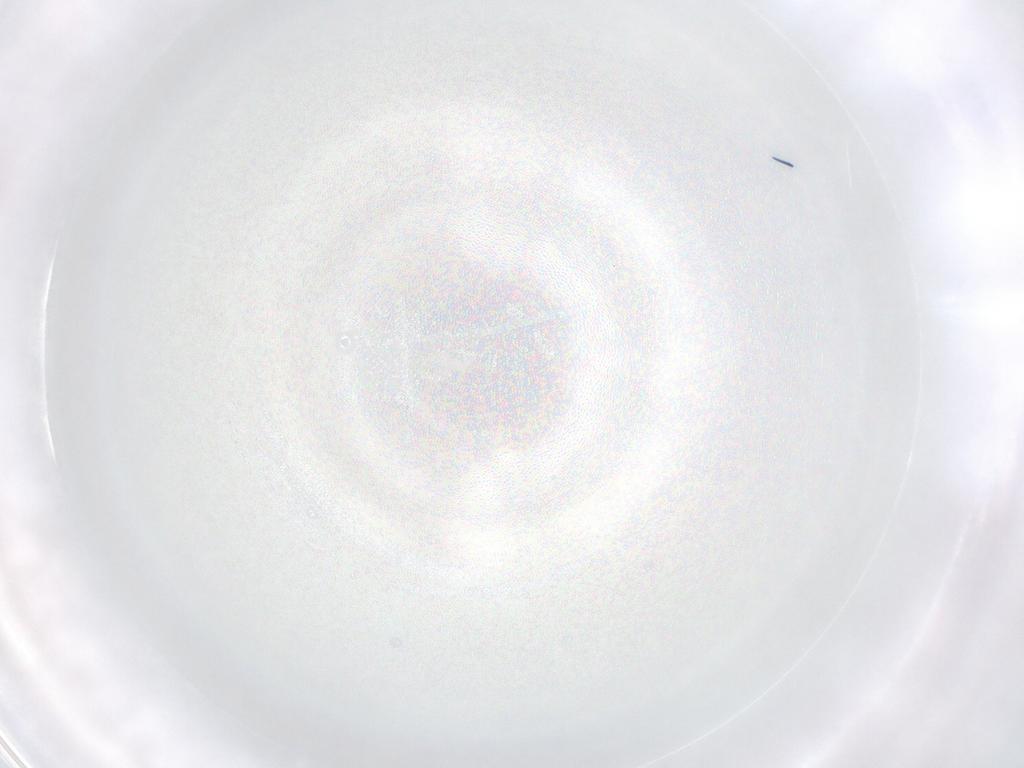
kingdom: Animalia
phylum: Arthropoda
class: Arachnida
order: Trombidiformes
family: Eupodidae
